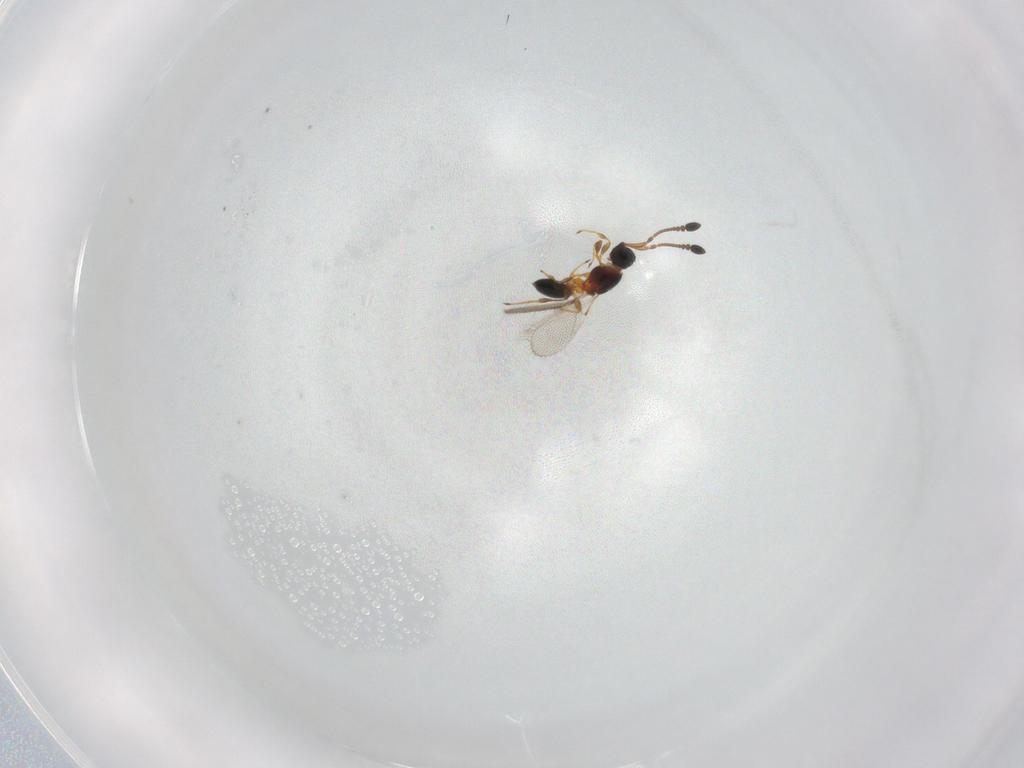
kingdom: Animalia
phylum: Arthropoda
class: Insecta
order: Hymenoptera
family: Diapriidae
